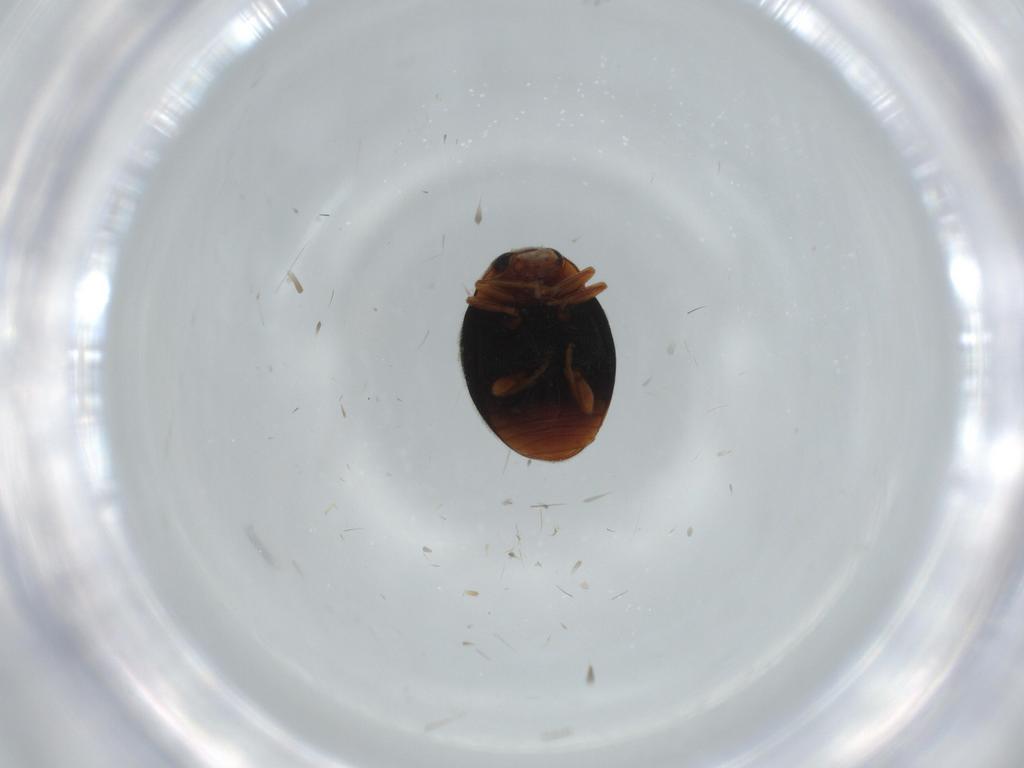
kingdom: Animalia
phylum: Arthropoda
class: Insecta
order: Coleoptera
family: Coccinellidae
